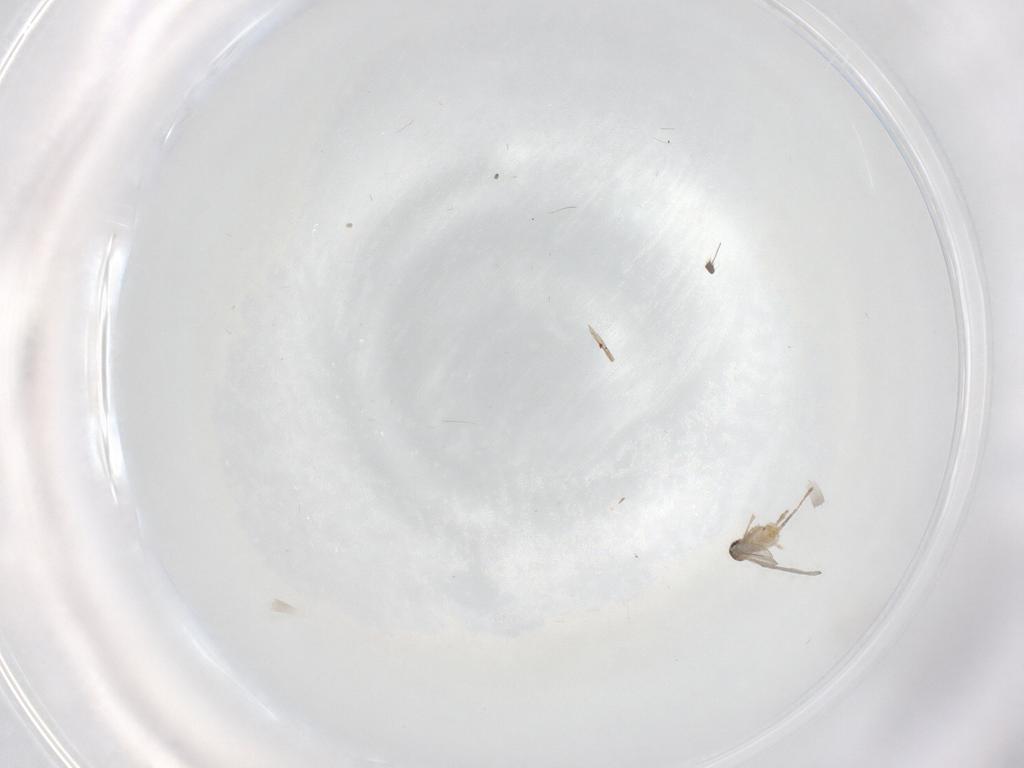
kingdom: Animalia
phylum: Arthropoda
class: Insecta
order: Diptera
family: Dolichopodidae
